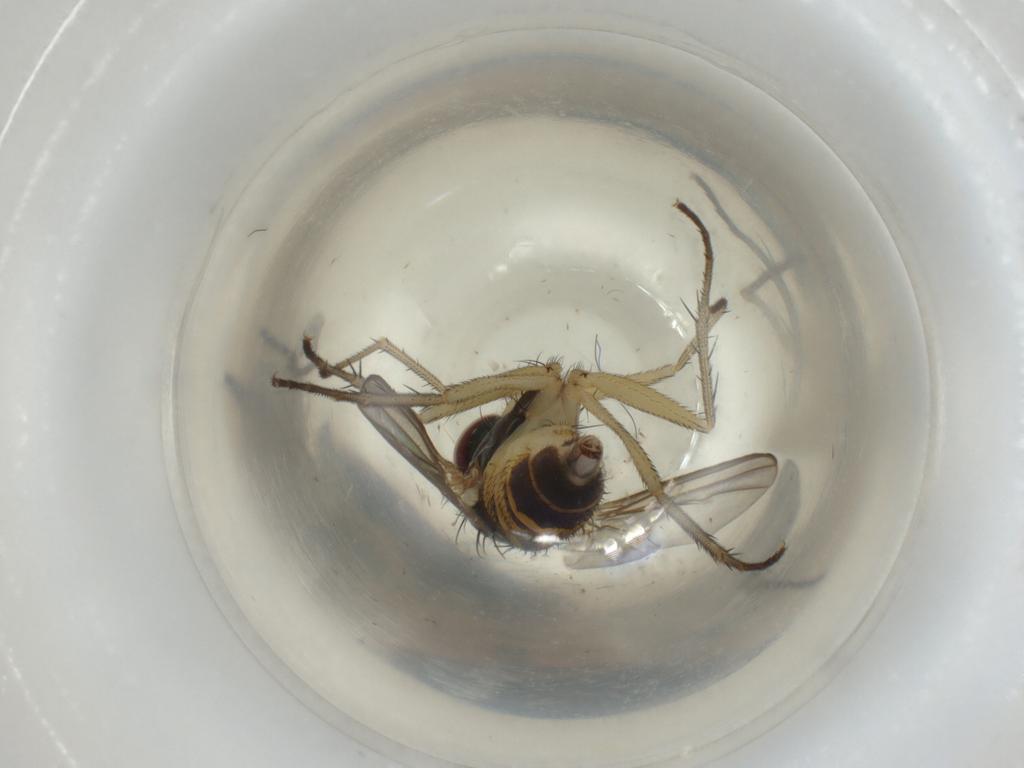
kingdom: Animalia
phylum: Arthropoda
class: Insecta
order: Diptera
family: Dolichopodidae
